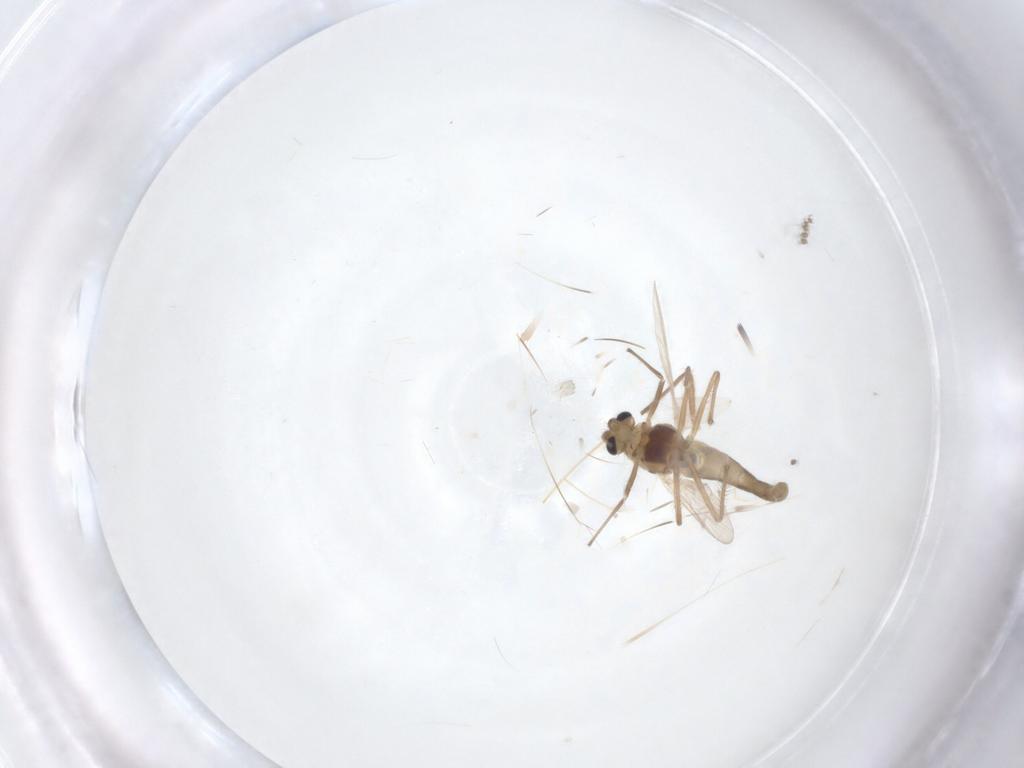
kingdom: Animalia
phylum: Arthropoda
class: Insecta
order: Diptera
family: Chironomidae
